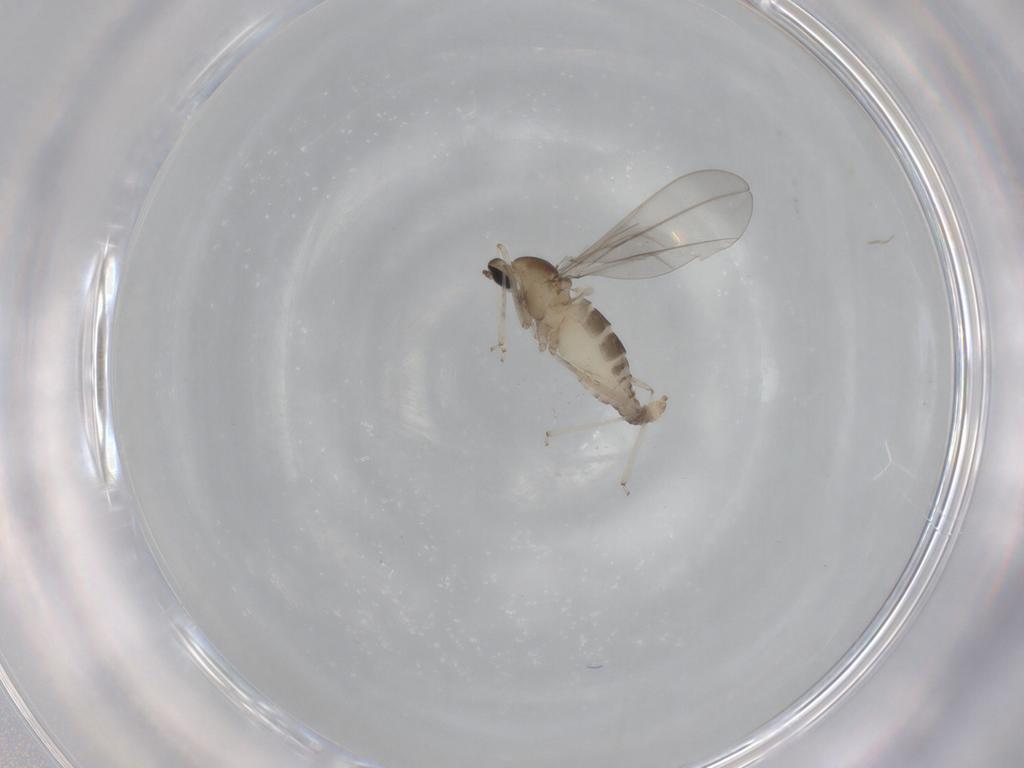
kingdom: Animalia
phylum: Arthropoda
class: Insecta
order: Diptera
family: Cecidomyiidae
